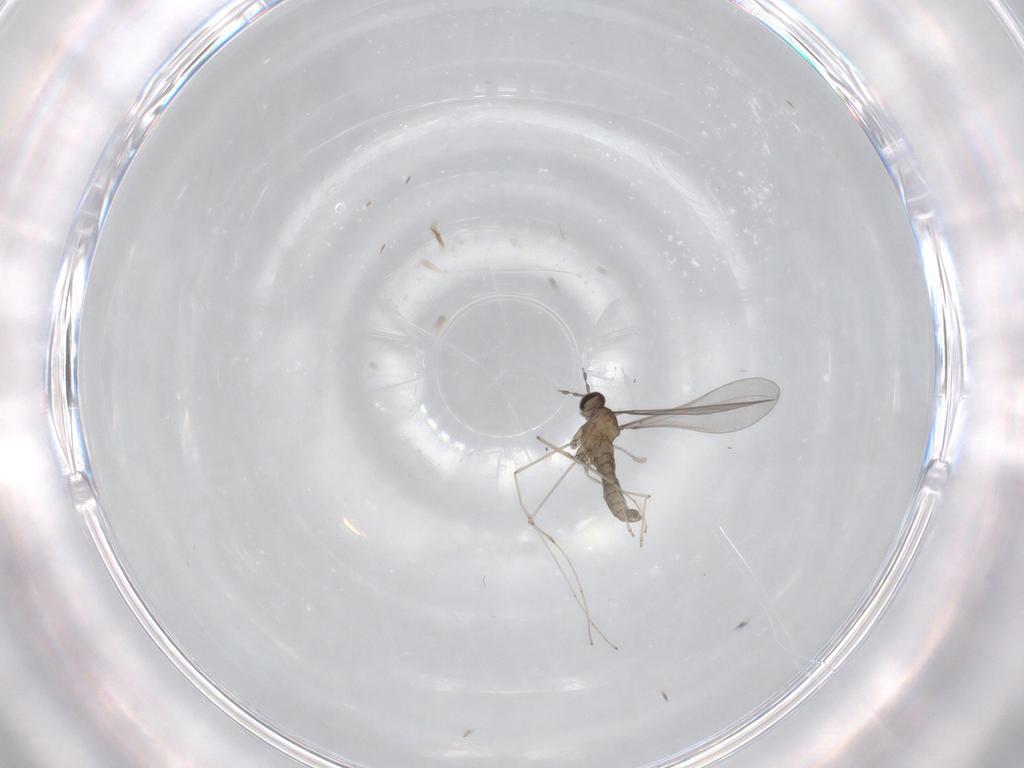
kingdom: Animalia
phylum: Arthropoda
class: Insecta
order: Diptera
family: Cecidomyiidae
